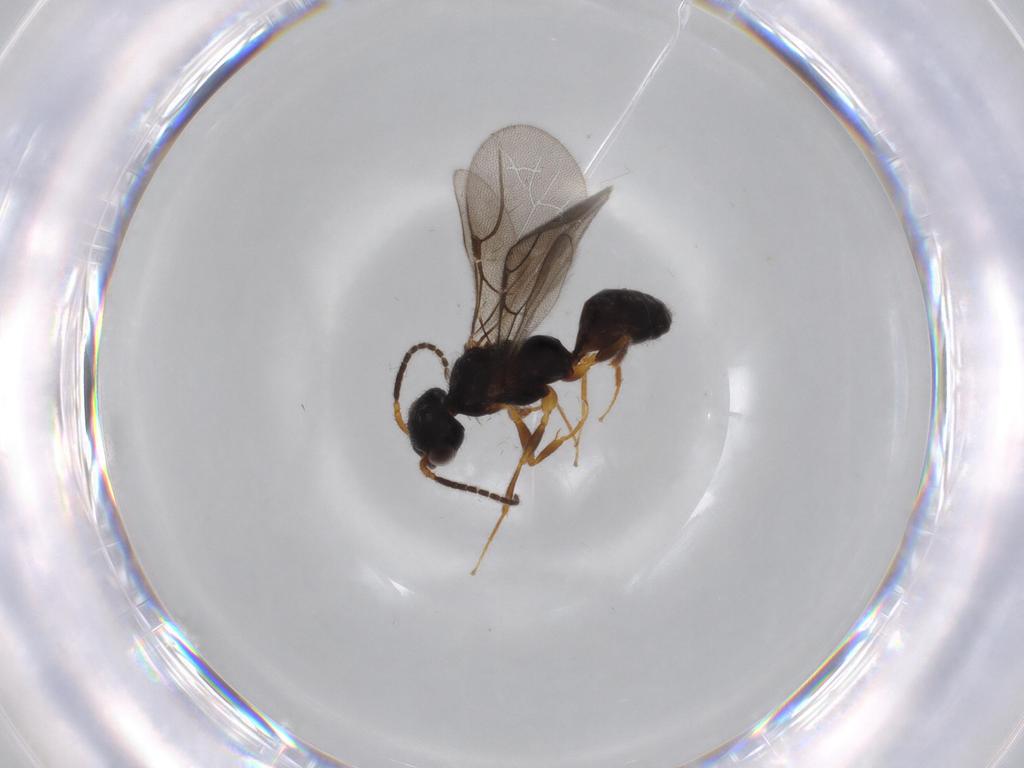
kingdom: Animalia
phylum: Arthropoda
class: Insecta
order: Hymenoptera
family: Bethylidae
